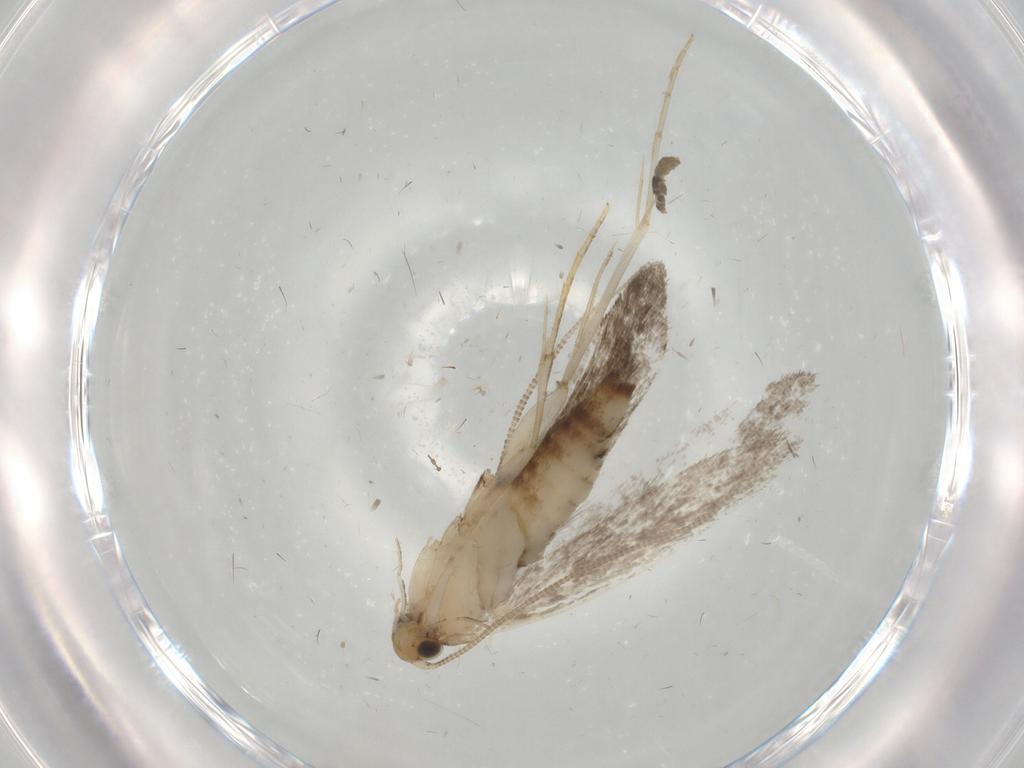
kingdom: Animalia
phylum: Arthropoda
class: Insecta
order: Lepidoptera
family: Tineidae
